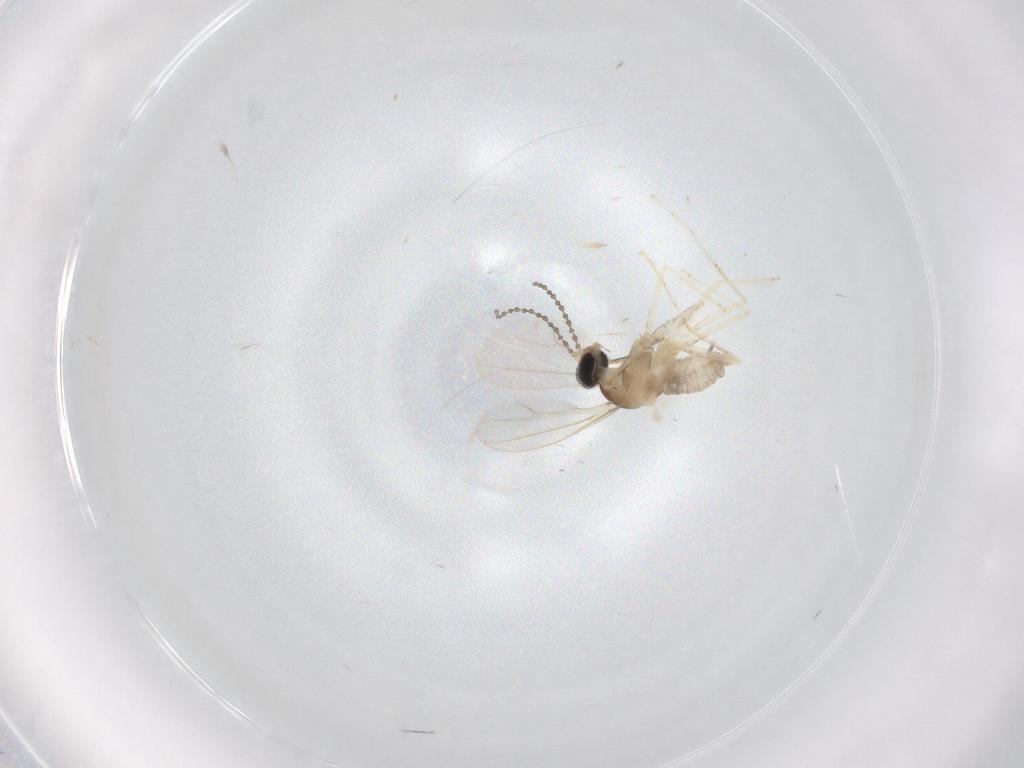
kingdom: Animalia
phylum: Arthropoda
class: Insecta
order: Diptera
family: Cecidomyiidae
